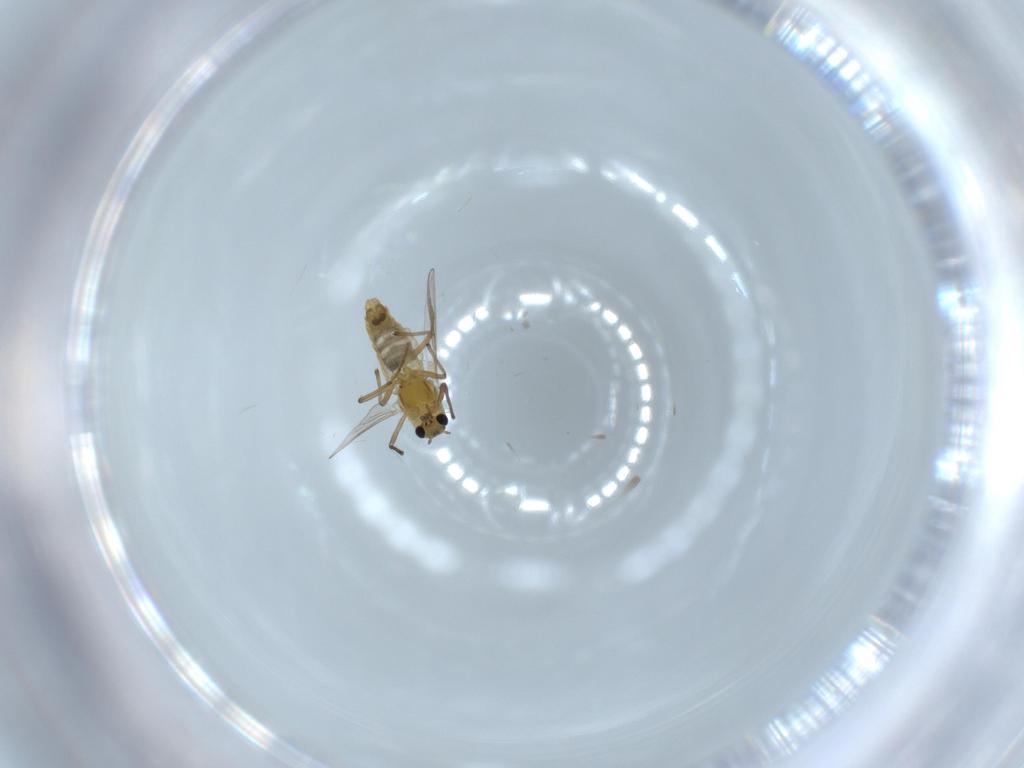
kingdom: Animalia
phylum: Arthropoda
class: Insecta
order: Diptera
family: Chironomidae
